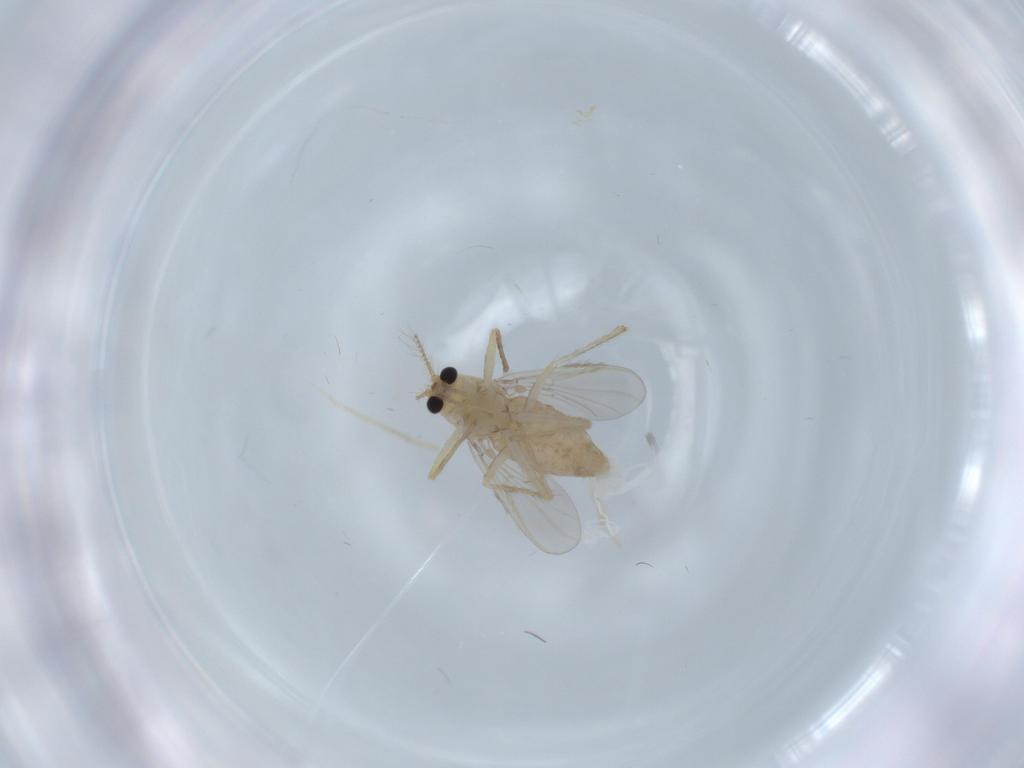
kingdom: Animalia
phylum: Arthropoda
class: Insecta
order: Diptera
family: Chironomidae
